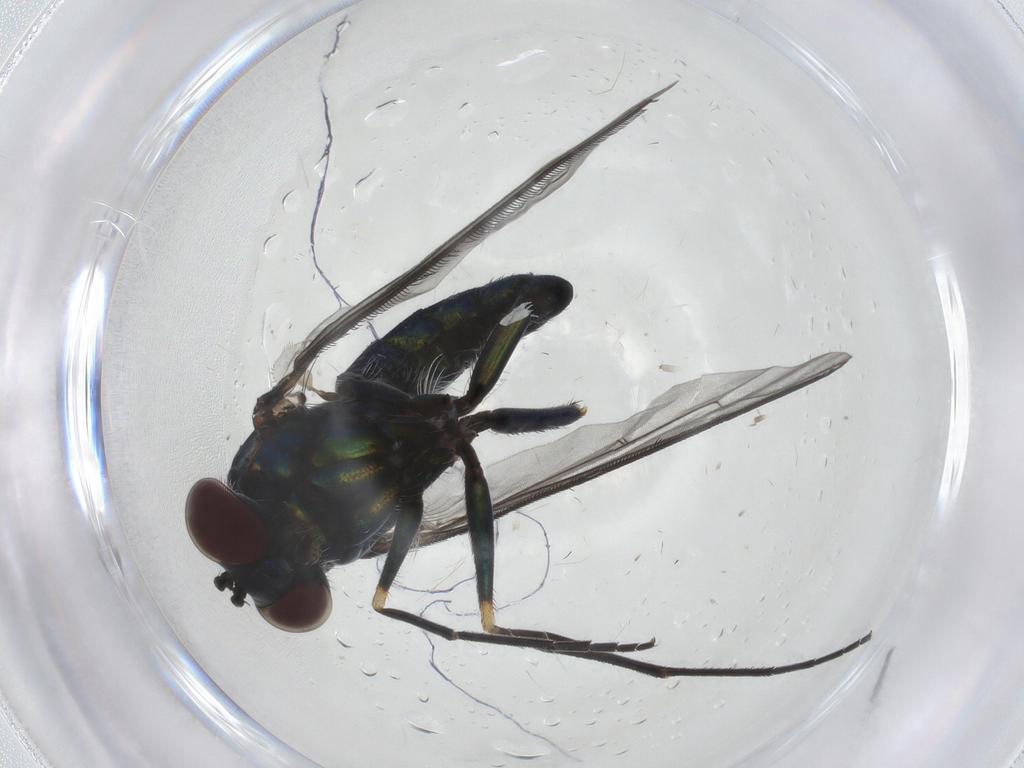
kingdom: Animalia
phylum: Arthropoda
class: Insecta
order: Diptera
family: Dolichopodidae
